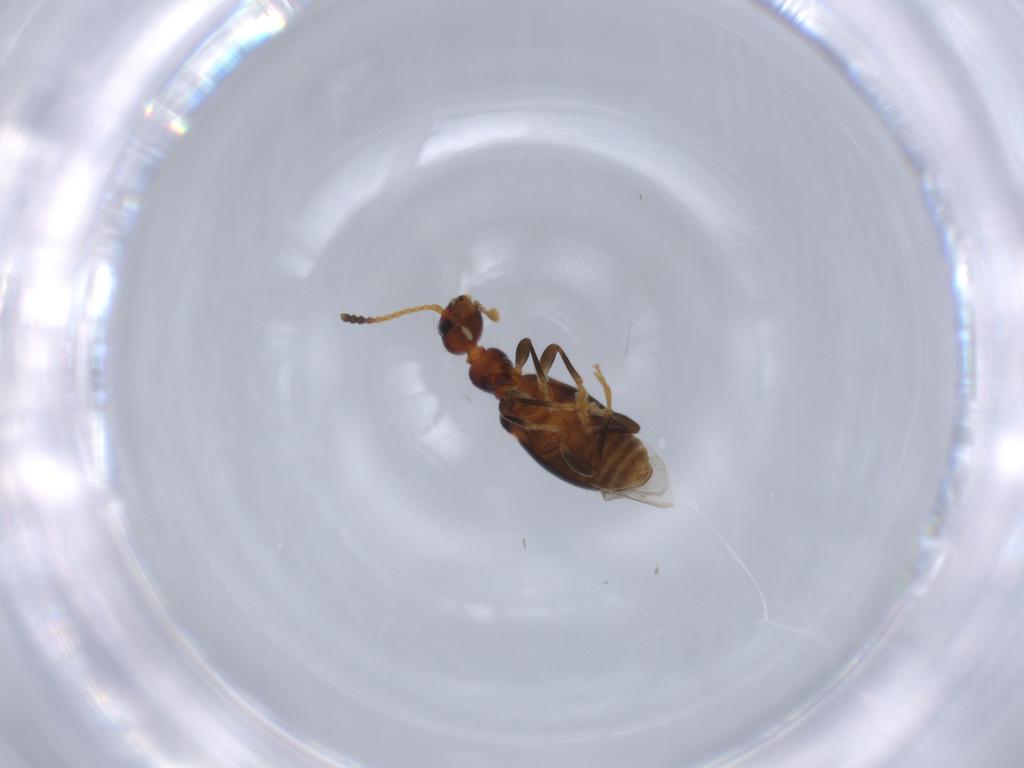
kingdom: Animalia
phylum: Arthropoda
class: Insecta
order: Coleoptera
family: Anthicidae
